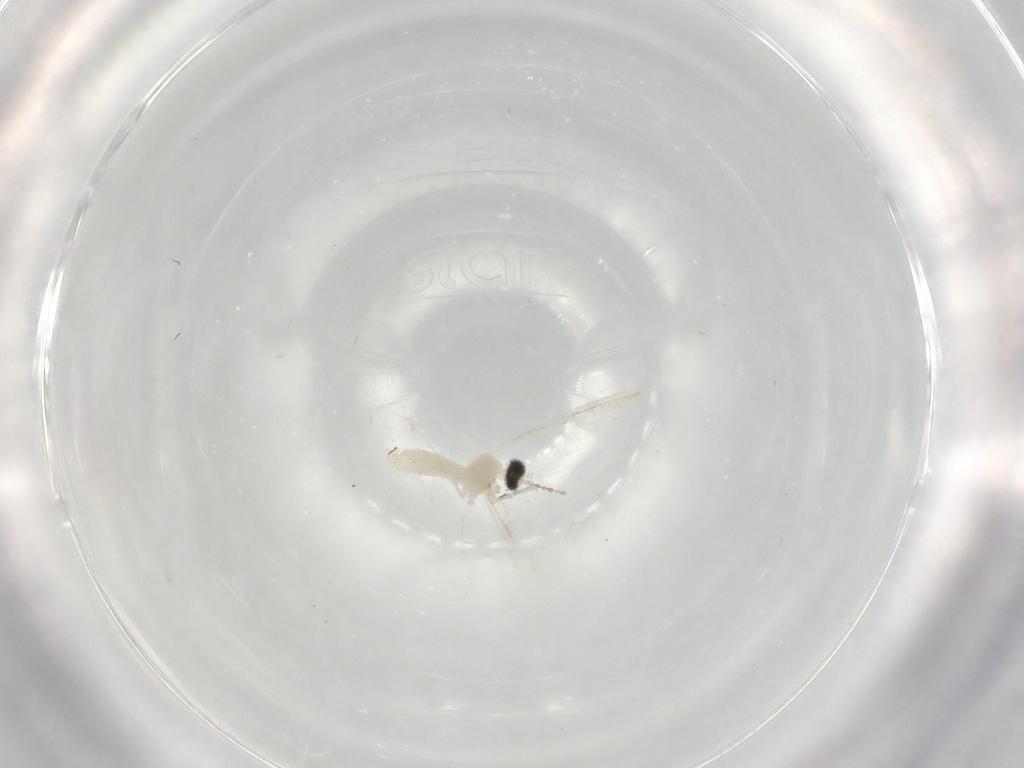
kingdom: Animalia
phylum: Arthropoda
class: Insecta
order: Diptera
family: Cecidomyiidae
